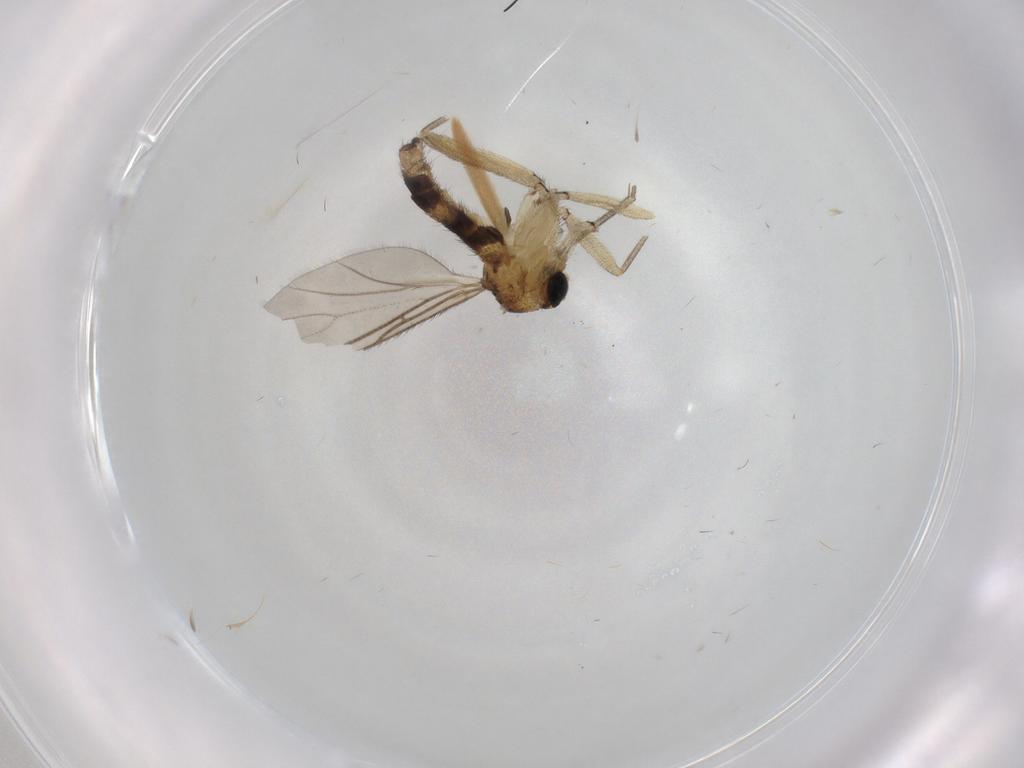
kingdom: Animalia
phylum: Arthropoda
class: Insecta
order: Diptera
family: Sciaridae
